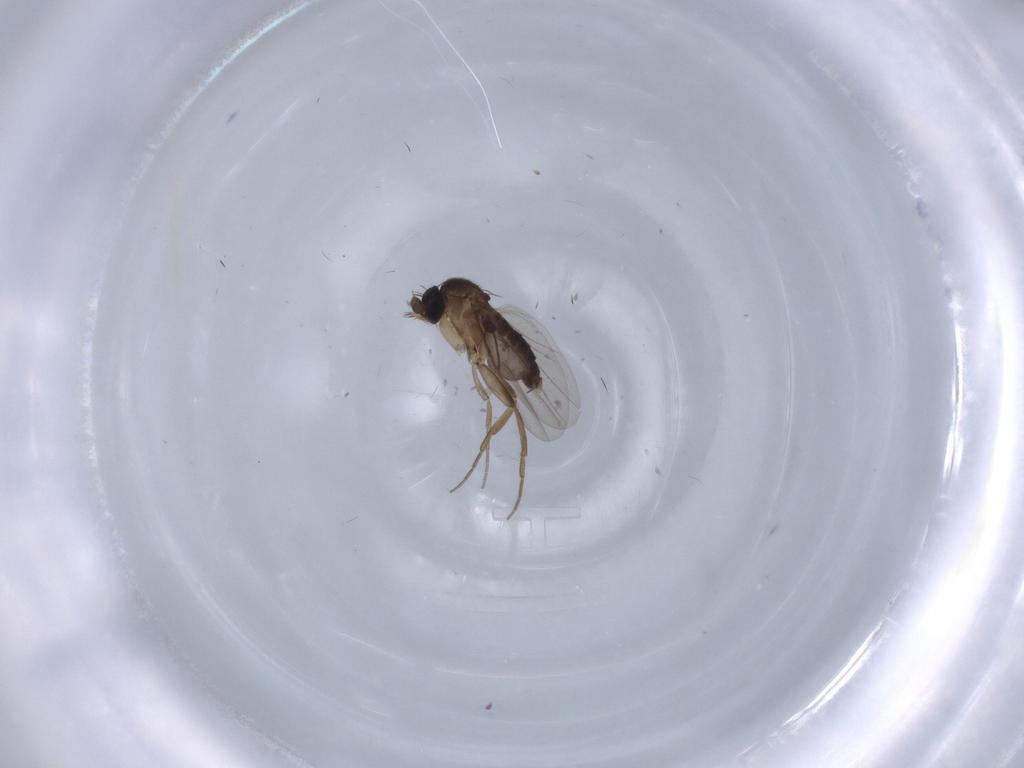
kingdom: Animalia
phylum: Arthropoda
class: Insecta
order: Diptera
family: Phoridae
